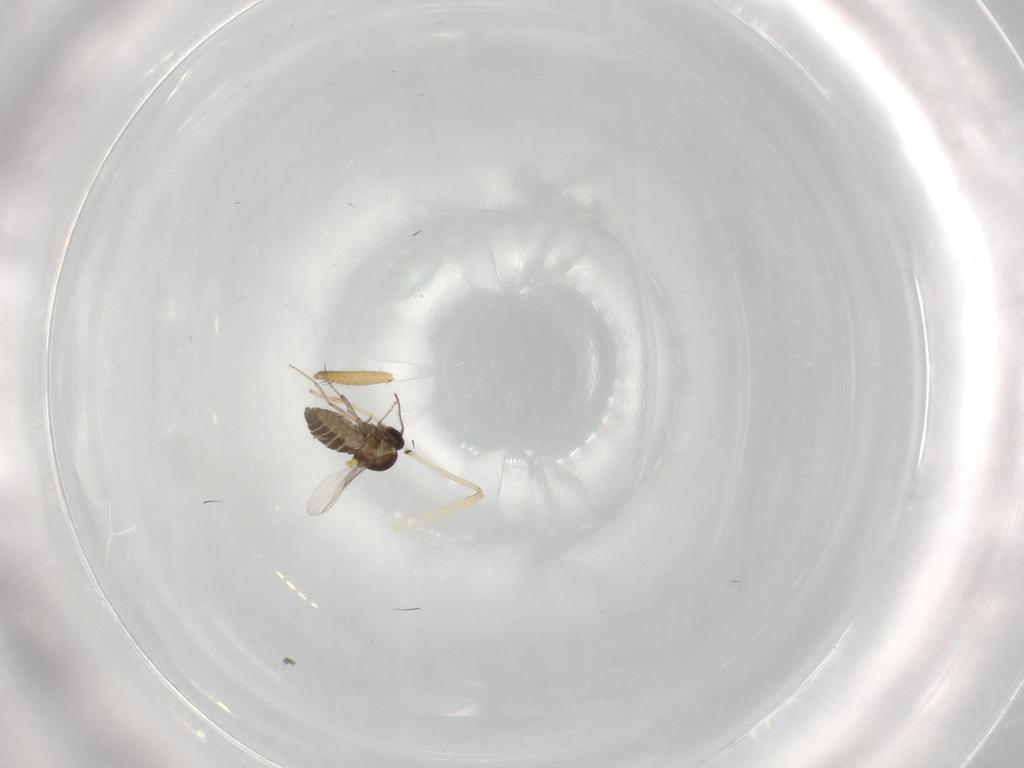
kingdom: Animalia
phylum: Arthropoda
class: Insecta
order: Diptera
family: Ceratopogonidae
